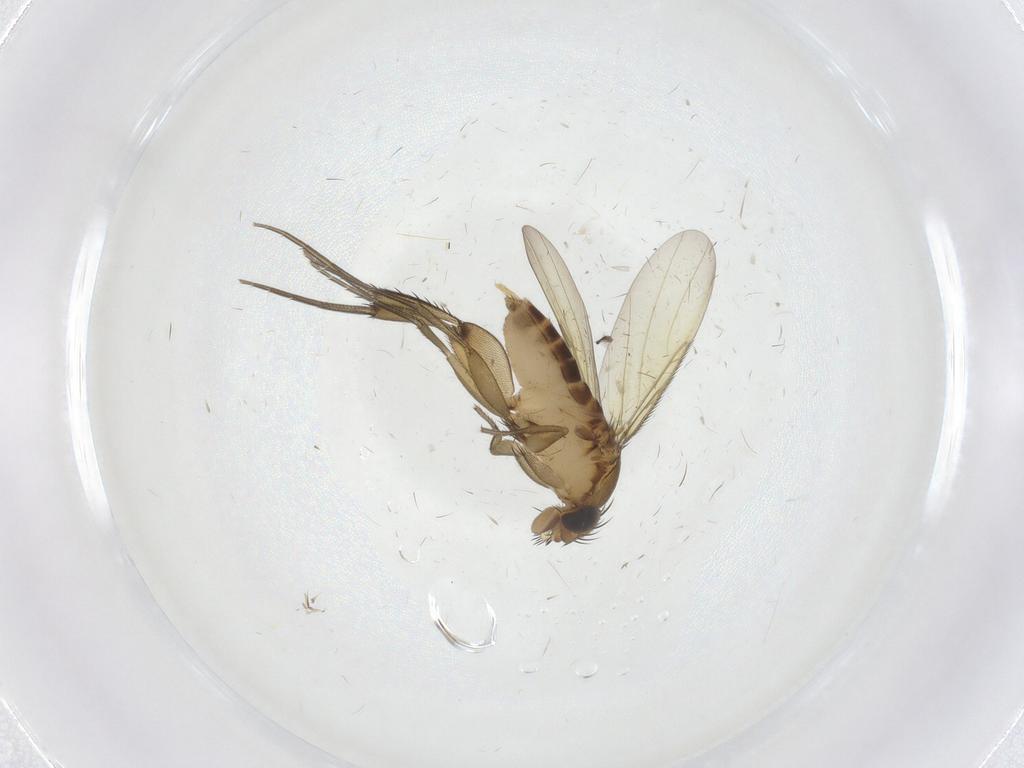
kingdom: Animalia
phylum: Arthropoda
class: Insecta
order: Diptera
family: Phoridae
